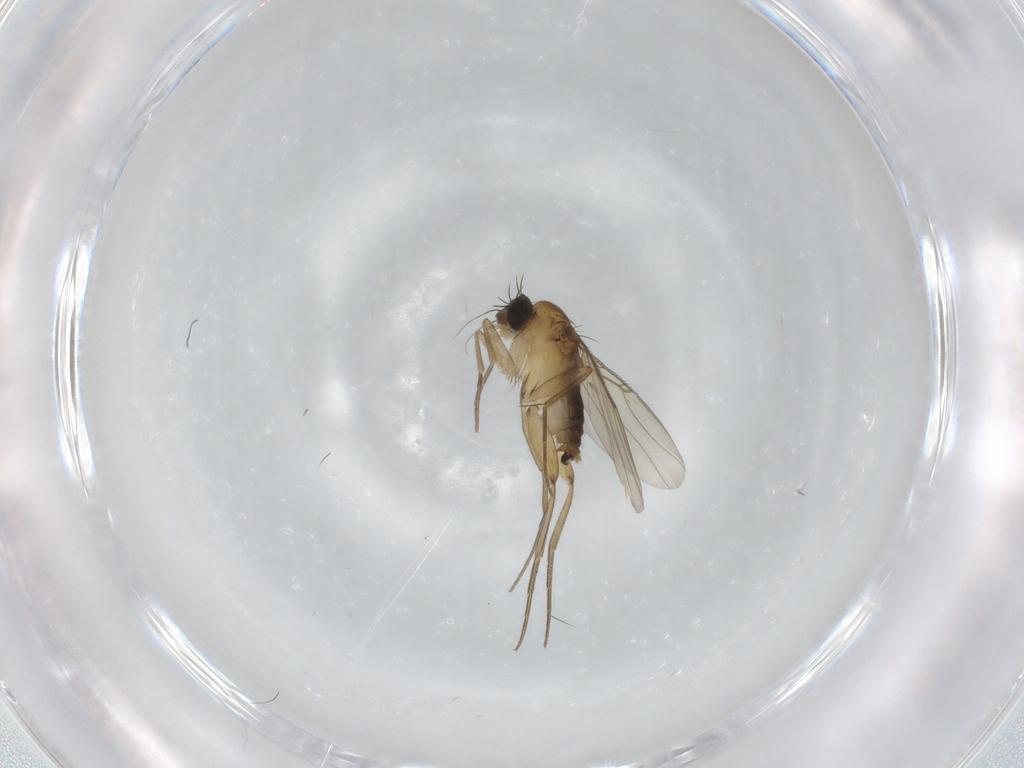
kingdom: Animalia
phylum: Arthropoda
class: Insecta
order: Diptera
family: Phoridae
